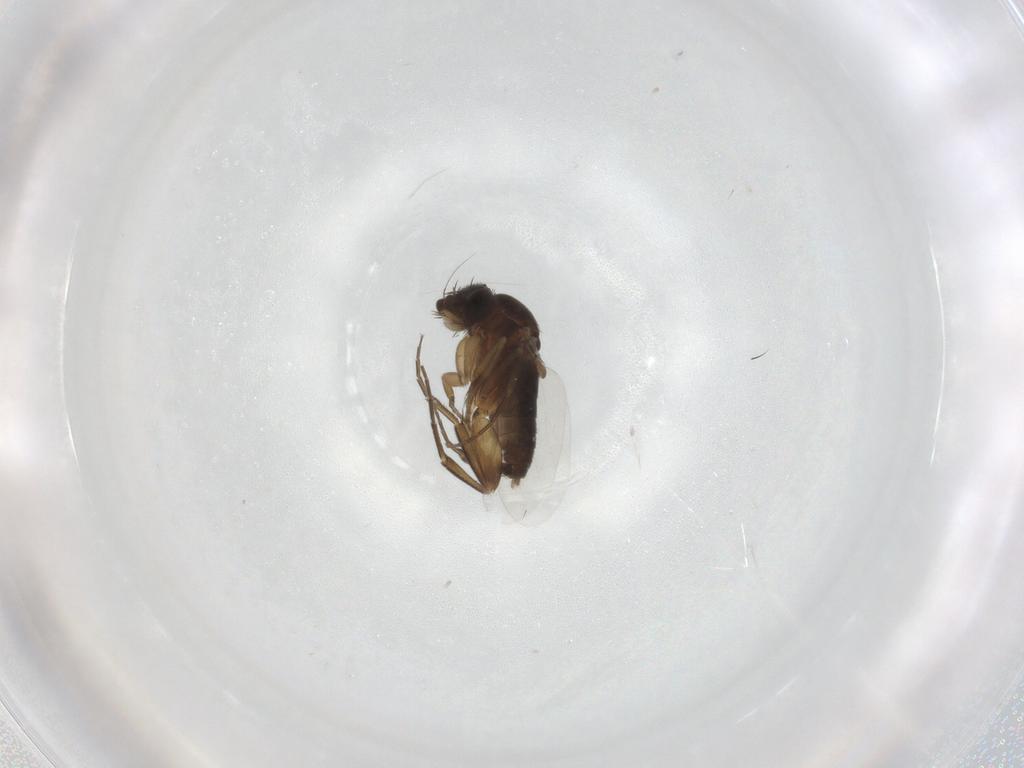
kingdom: Animalia
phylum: Arthropoda
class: Insecta
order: Diptera
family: Phoridae
